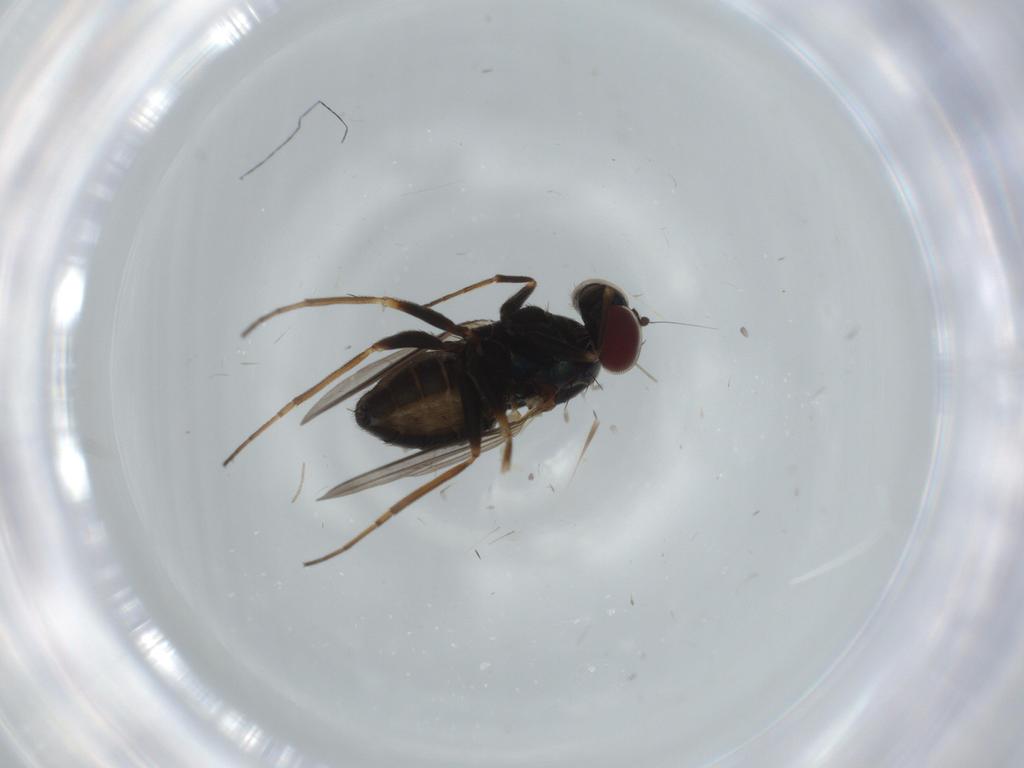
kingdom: Animalia
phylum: Arthropoda
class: Insecta
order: Diptera
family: Dolichopodidae
